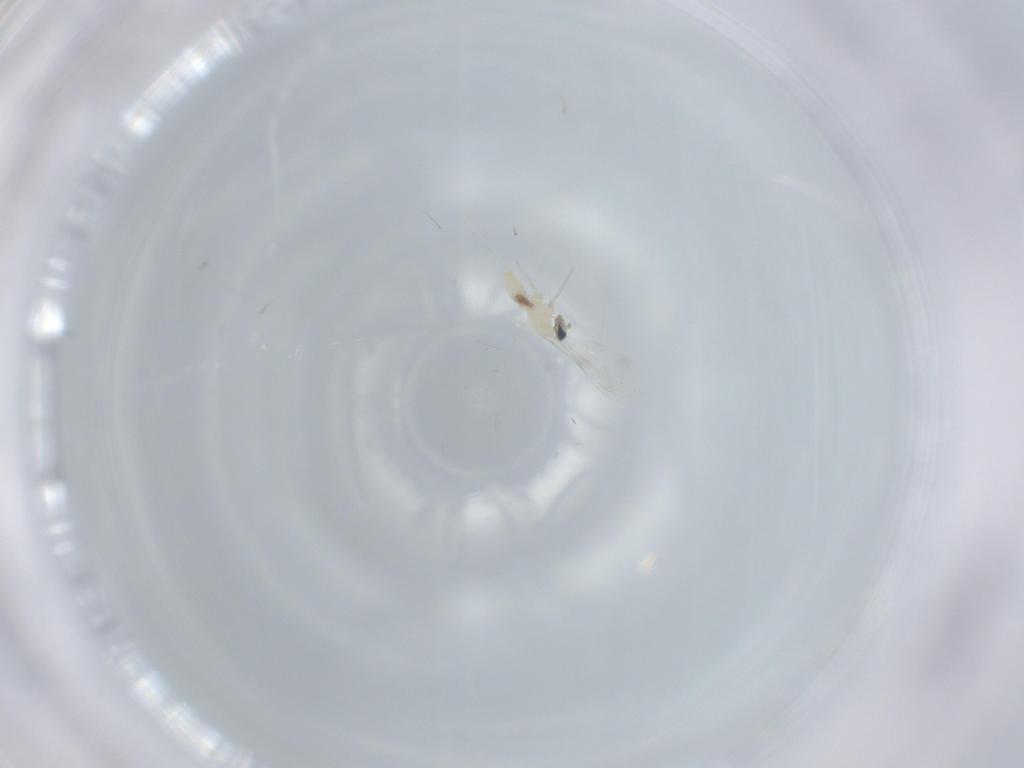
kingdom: Animalia
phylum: Arthropoda
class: Insecta
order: Diptera
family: Cecidomyiidae
